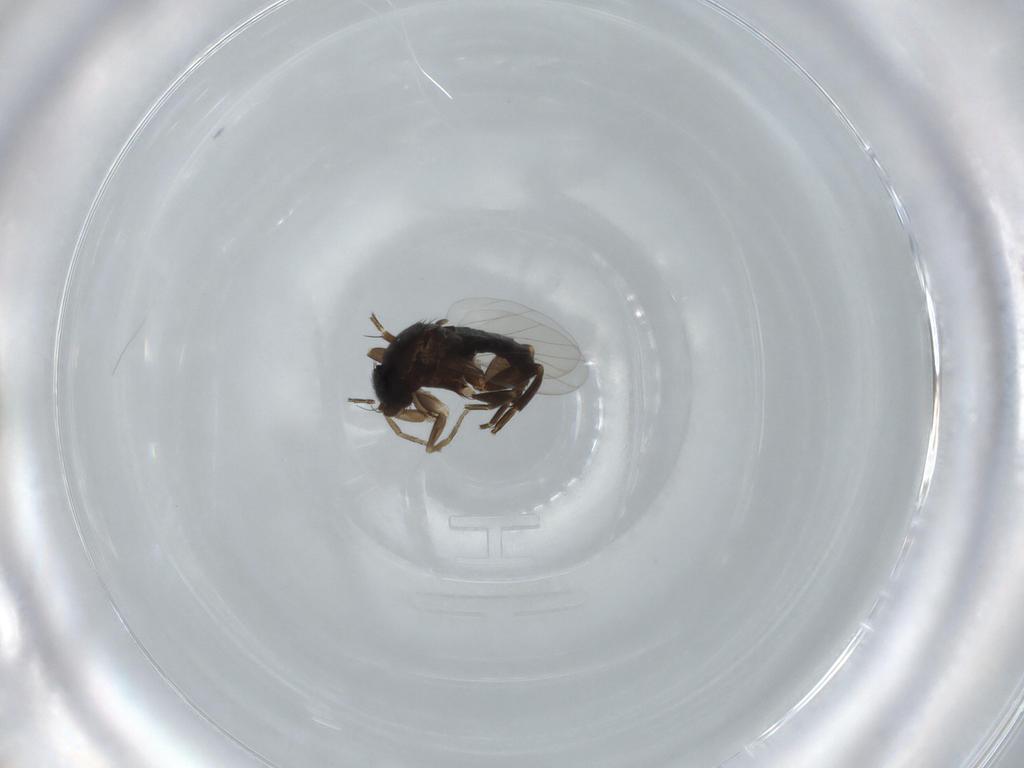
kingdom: Animalia
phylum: Arthropoda
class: Insecta
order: Diptera
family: Phoridae
